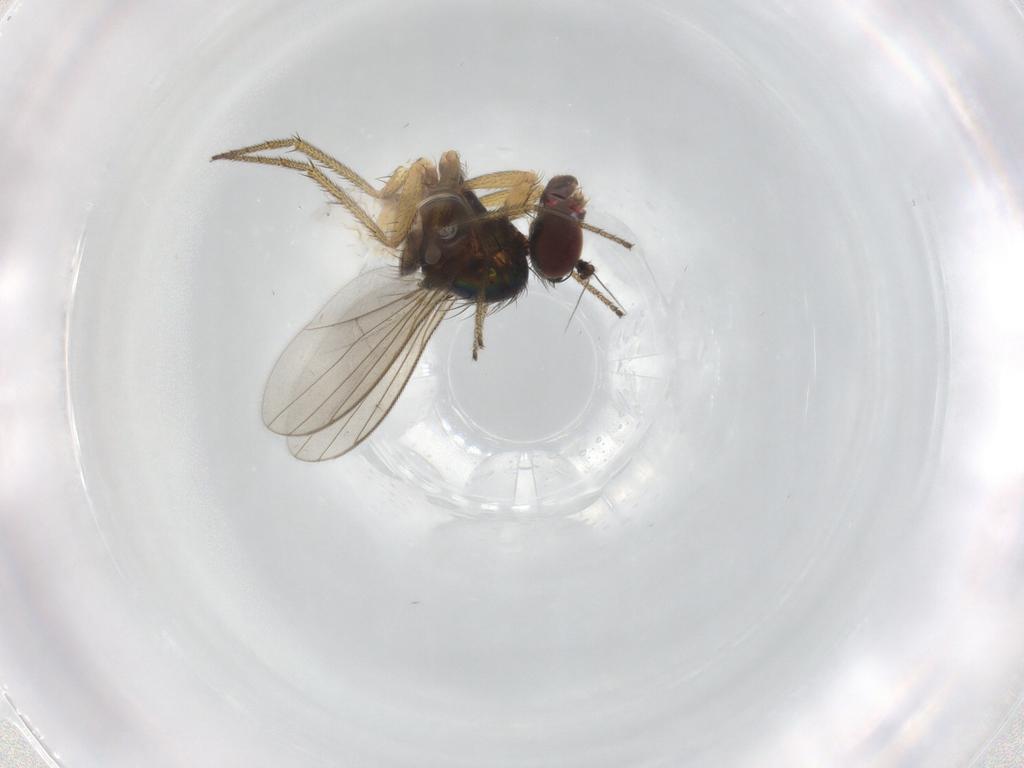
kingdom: Animalia
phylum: Arthropoda
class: Insecta
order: Diptera
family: Ceratopogonidae
